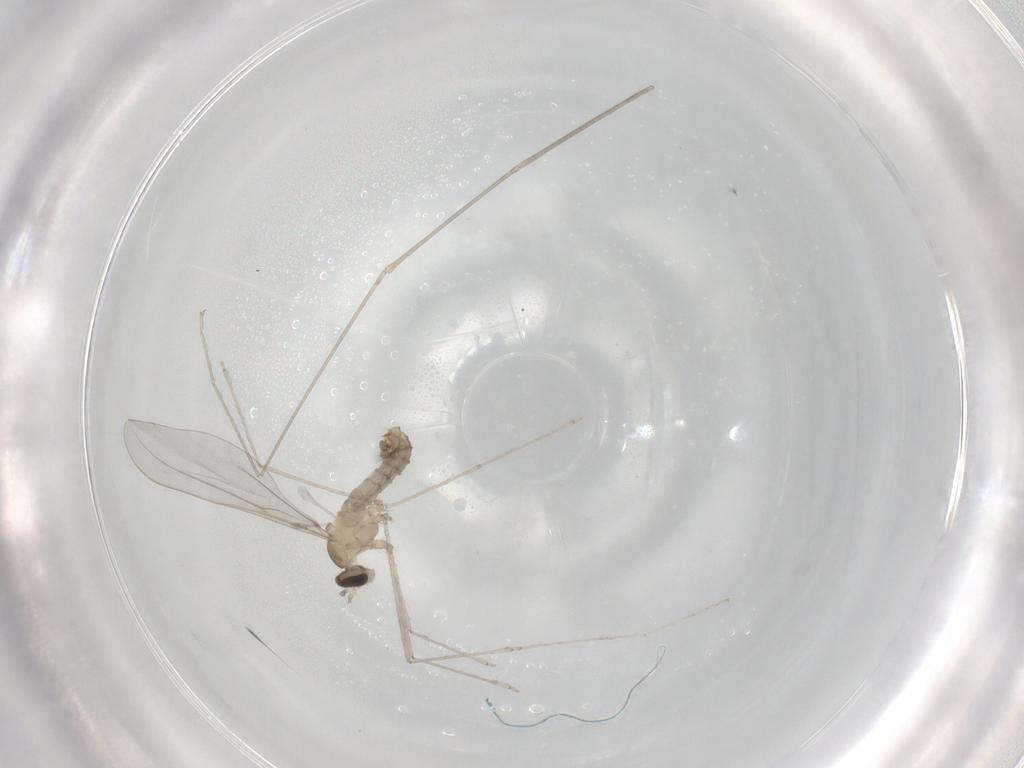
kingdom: Animalia
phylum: Arthropoda
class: Insecta
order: Diptera
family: Cecidomyiidae
